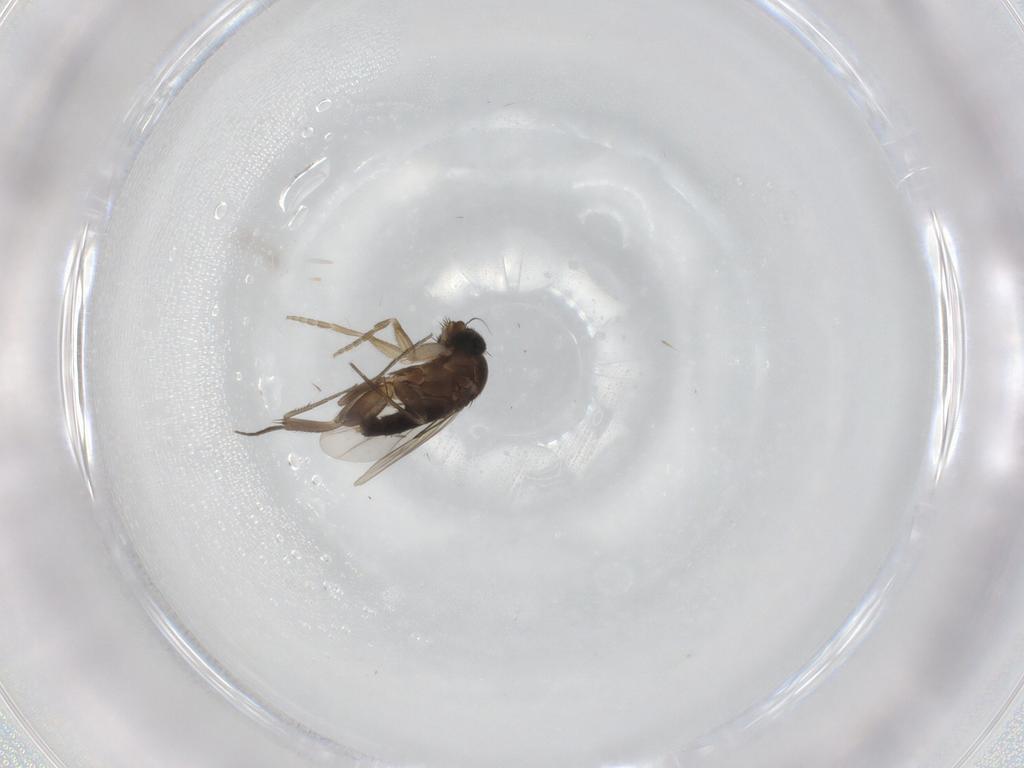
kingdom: Animalia
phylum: Arthropoda
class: Insecta
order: Diptera
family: Phoridae
